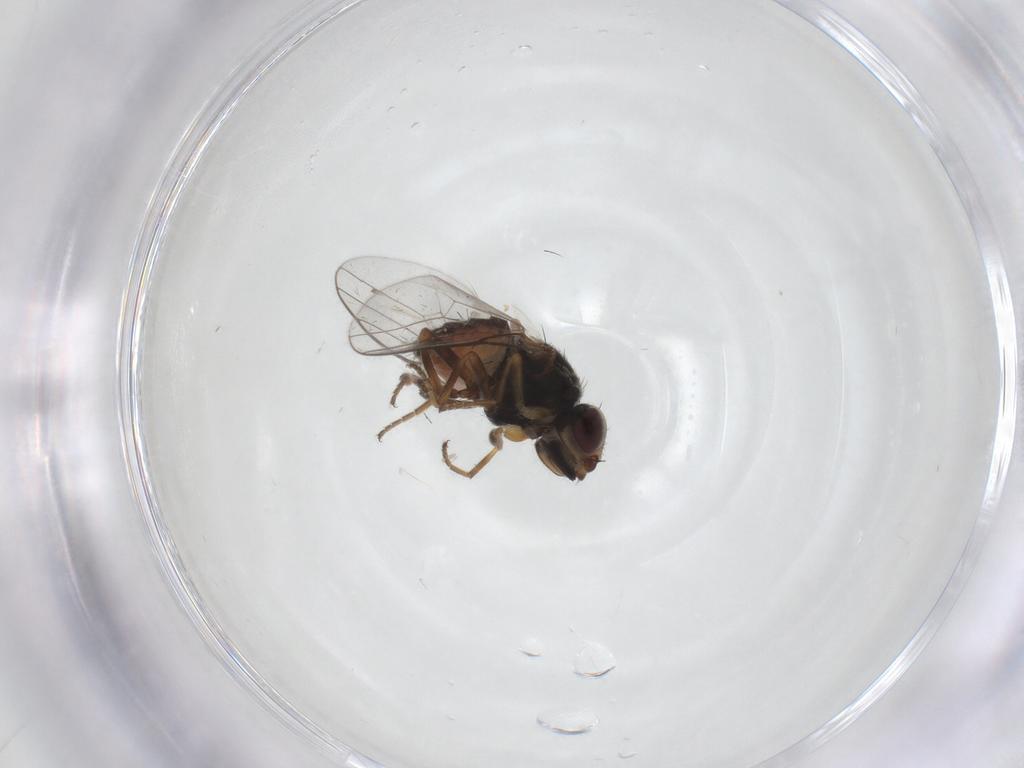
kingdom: Animalia
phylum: Arthropoda
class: Insecta
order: Diptera
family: Chloropidae
